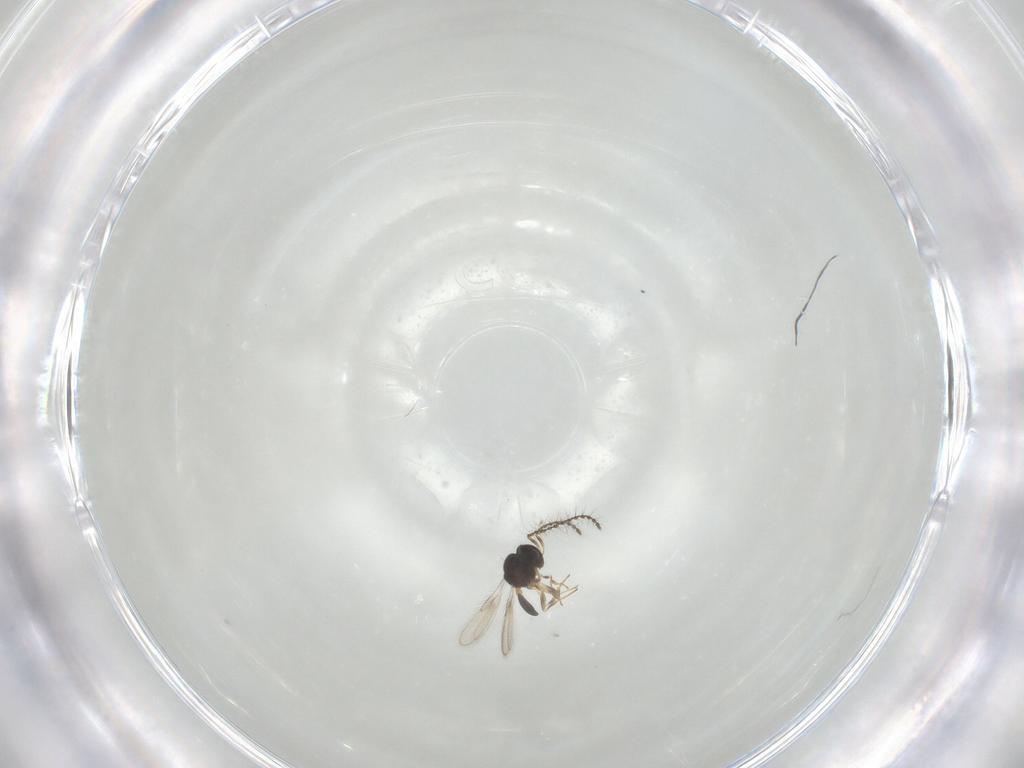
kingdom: Animalia
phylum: Arthropoda
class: Insecta
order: Hymenoptera
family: Scelionidae
